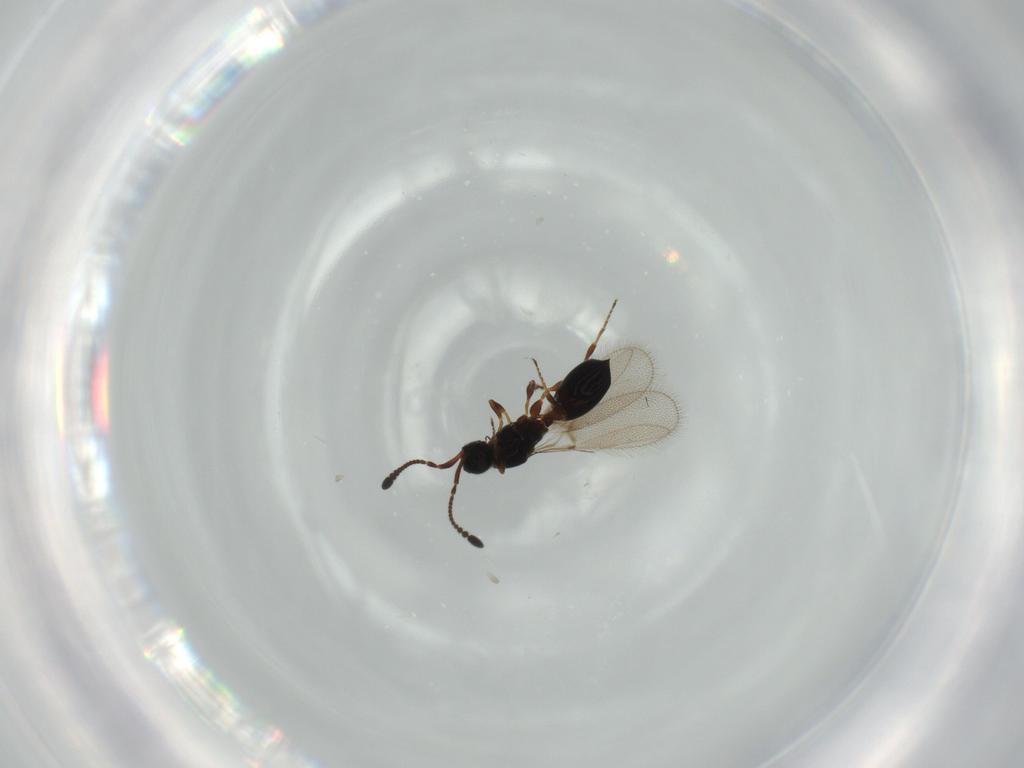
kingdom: Animalia
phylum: Arthropoda
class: Insecta
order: Hymenoptera
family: Diapriidae
